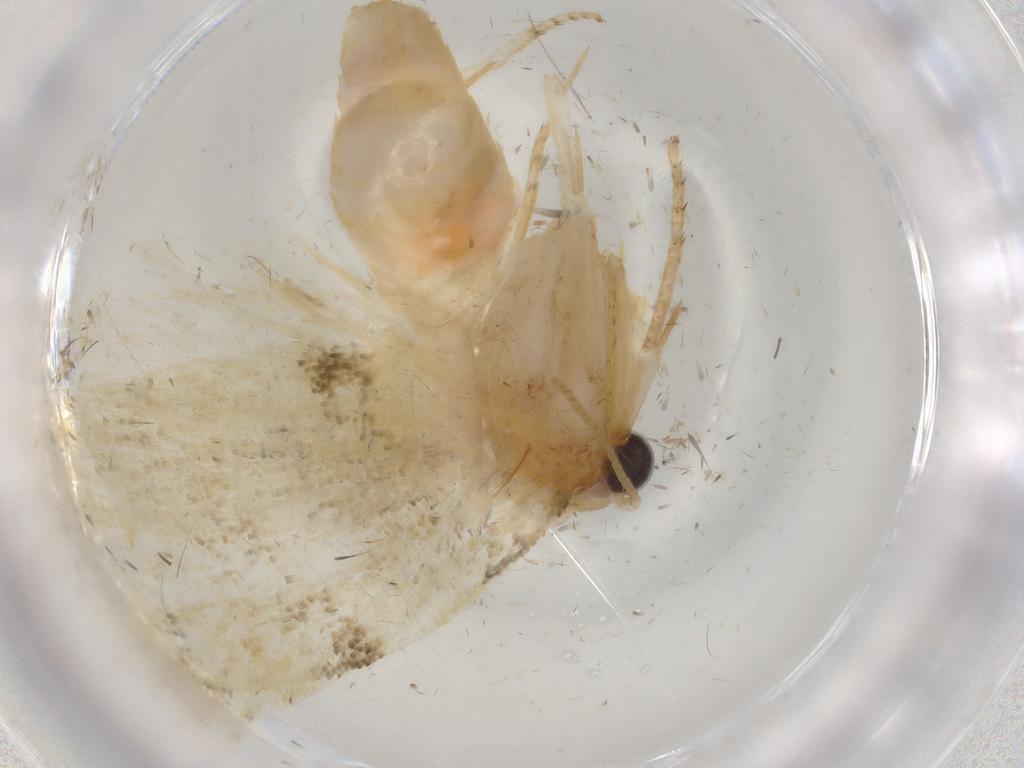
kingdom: Animalia
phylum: Arthropoda
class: Insecta
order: Lepidoptera
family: Tortricidae
